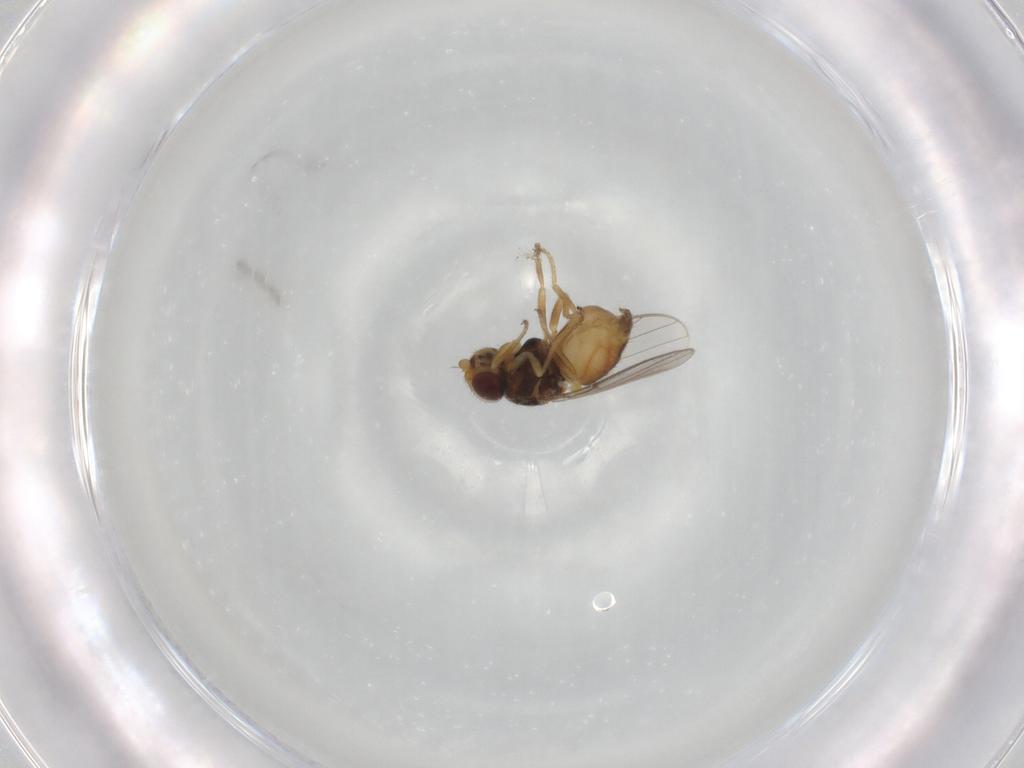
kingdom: Animalia
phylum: Arthropoda
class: Insecta
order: Diptera
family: Chloropidae
